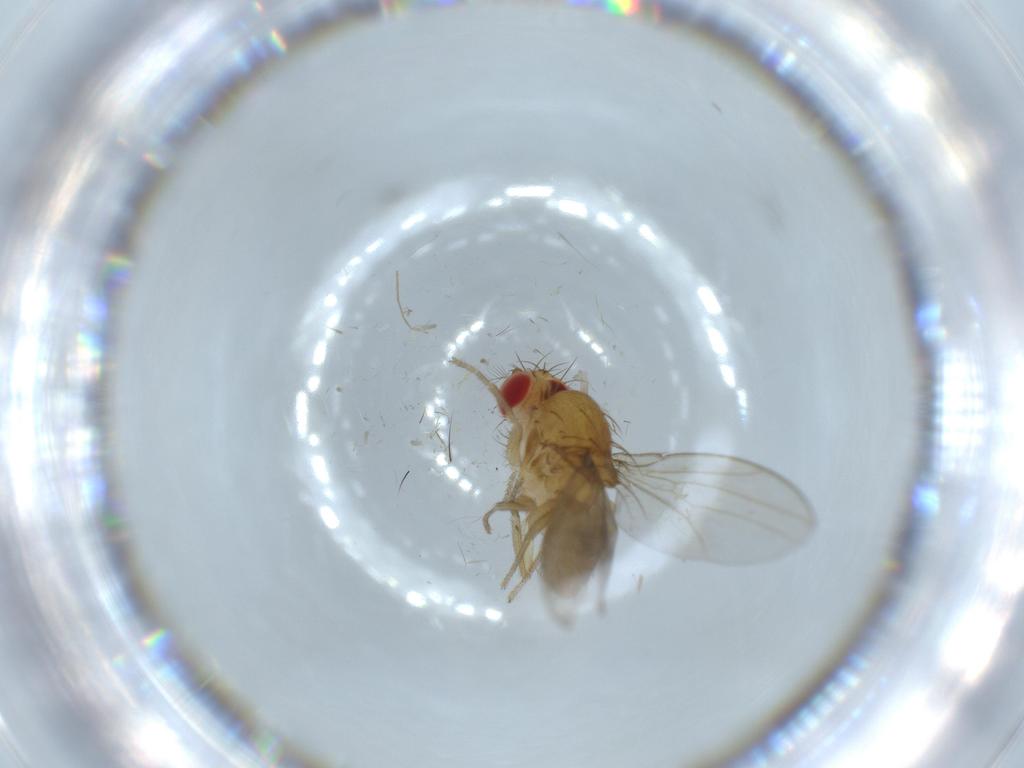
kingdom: Animalia
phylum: Arthropoda
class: Insecta
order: Diptera
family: Drosophilidae
